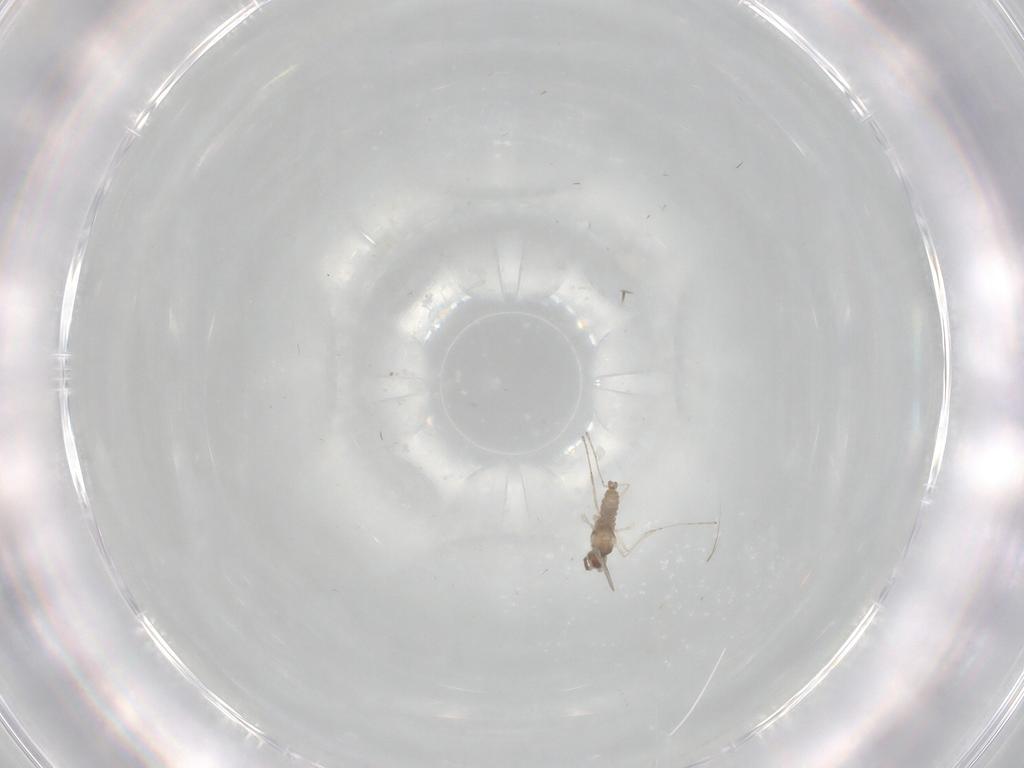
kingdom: Animalia
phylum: Arthropoda
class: Insecta
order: Diptera
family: Cecidomyiidae
